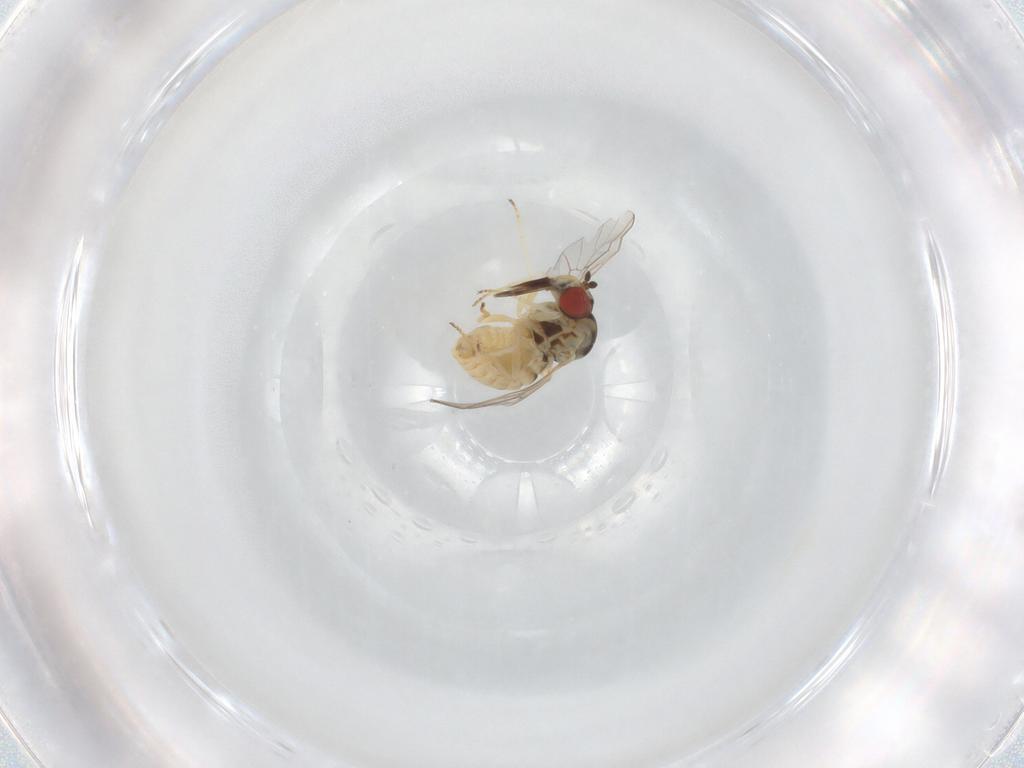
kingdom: Animalia
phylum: Arthropoda
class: Insecta
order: Diptera
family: Bombyliidae
